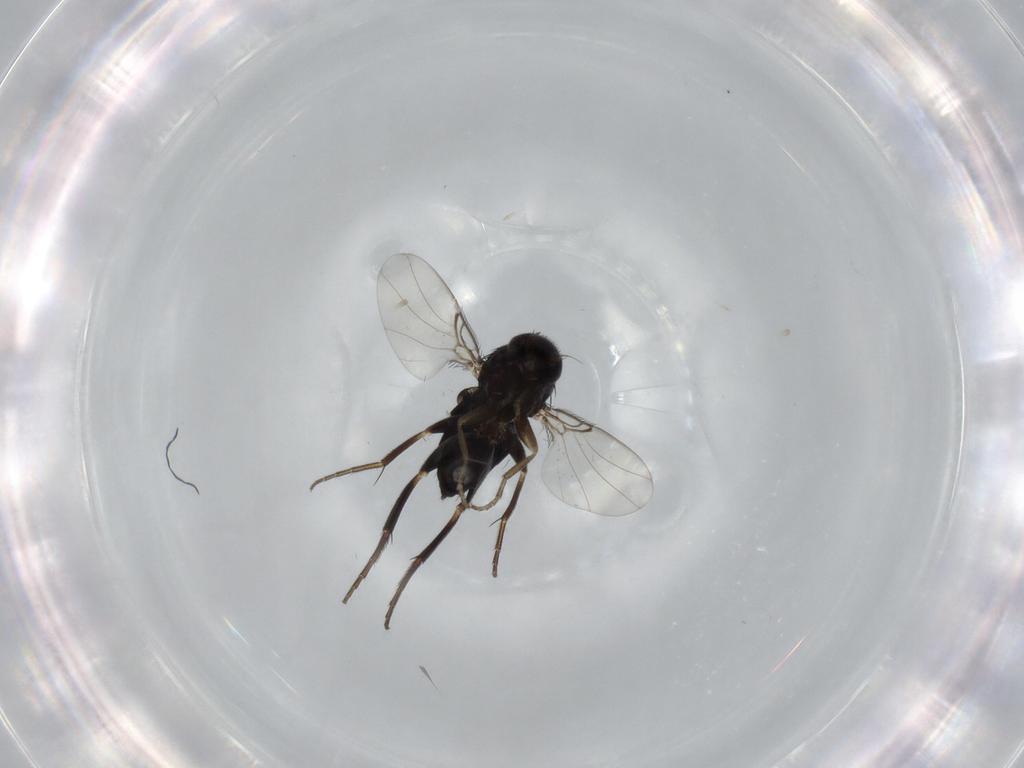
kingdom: Animalia
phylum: Arthropoda
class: Insecta
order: Diptera
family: Phoridae
